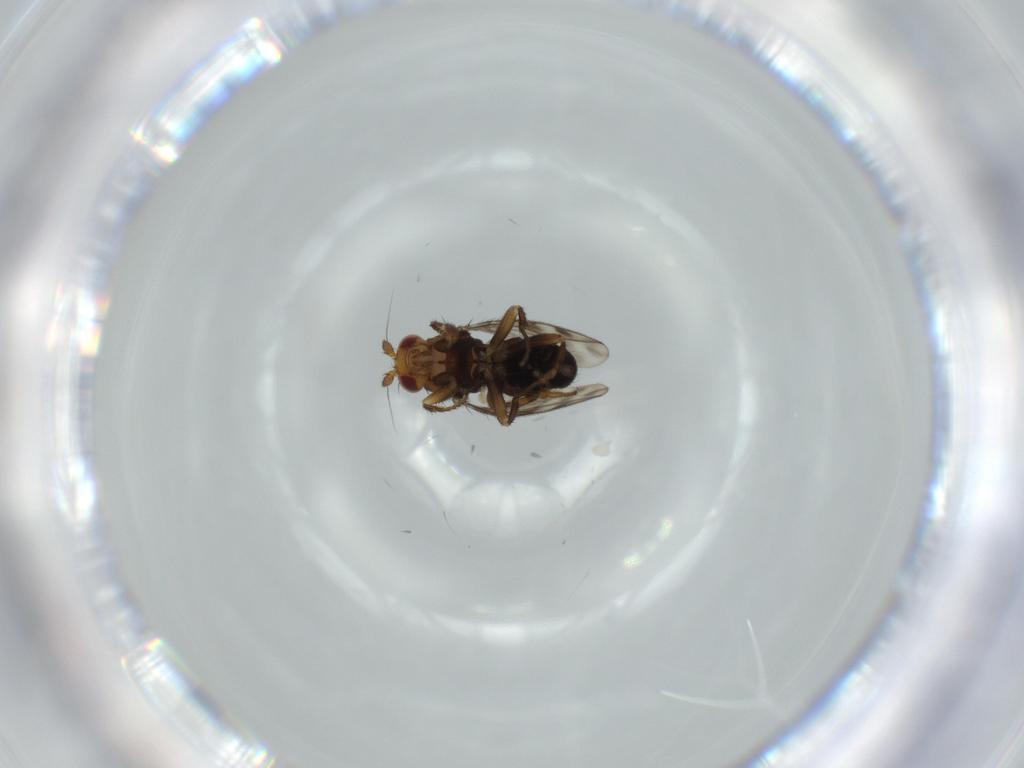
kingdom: Animalia
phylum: Arthropoda
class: Insecta
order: Diptera
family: Sphaeroceridae
